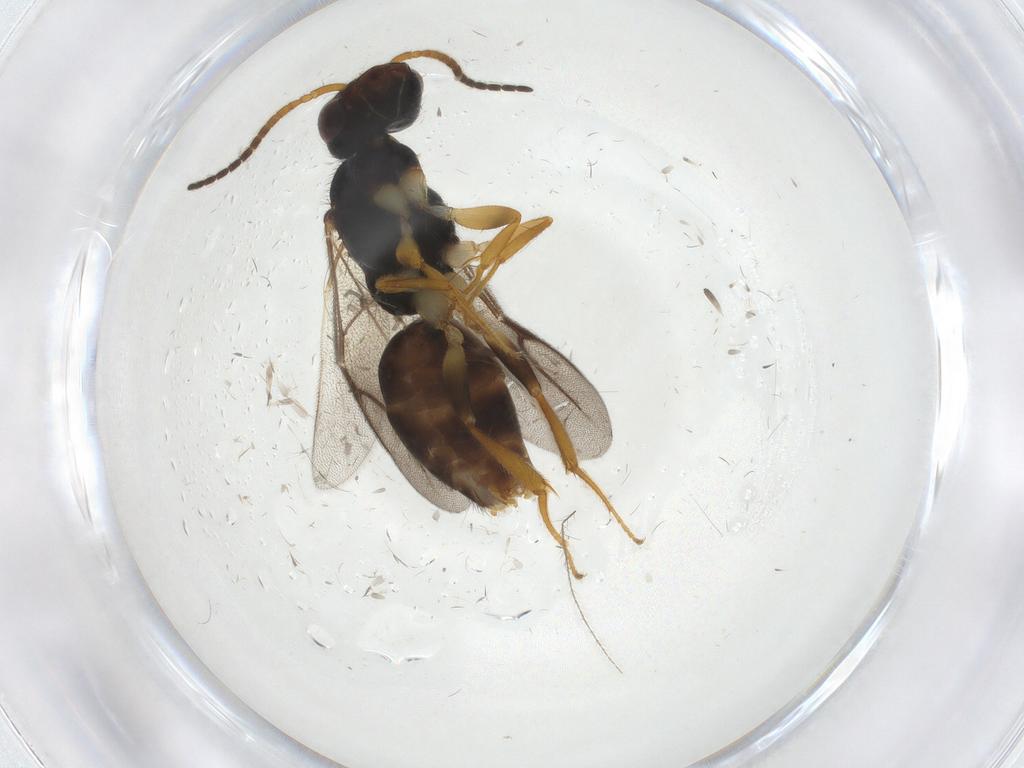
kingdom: Animalia
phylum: Arthropoda
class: Insecta
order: Hymenoptera
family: Bethylidae
